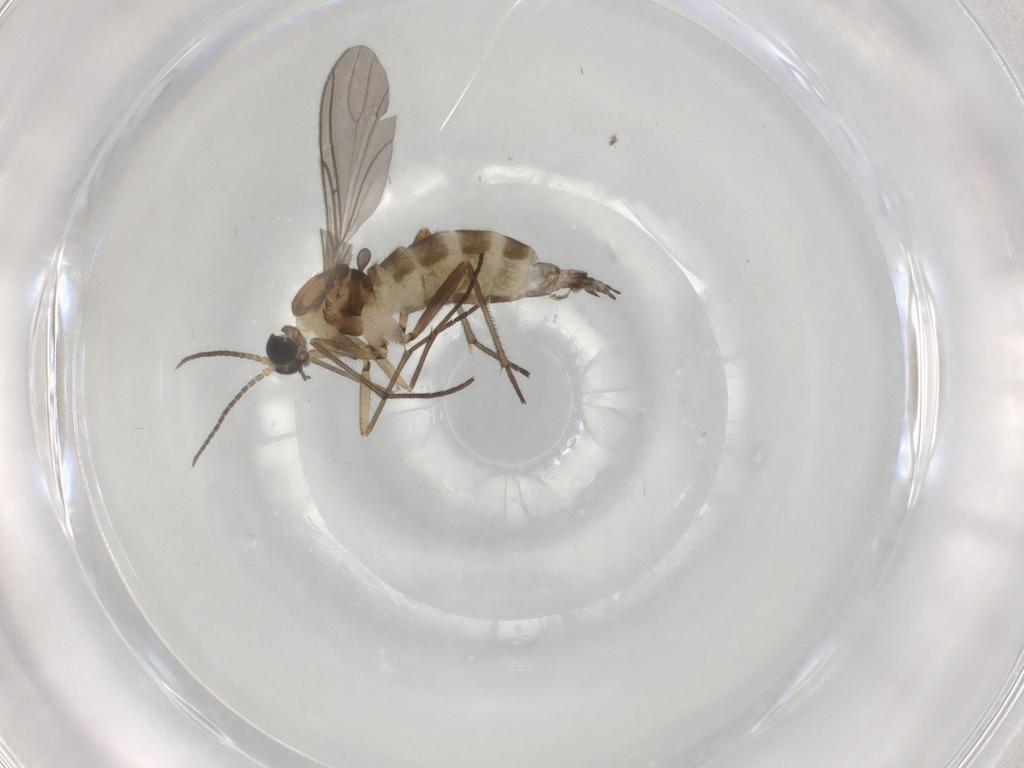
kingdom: Animalia
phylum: Arthropoda
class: Insecta
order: Diptera
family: Sciaridae
